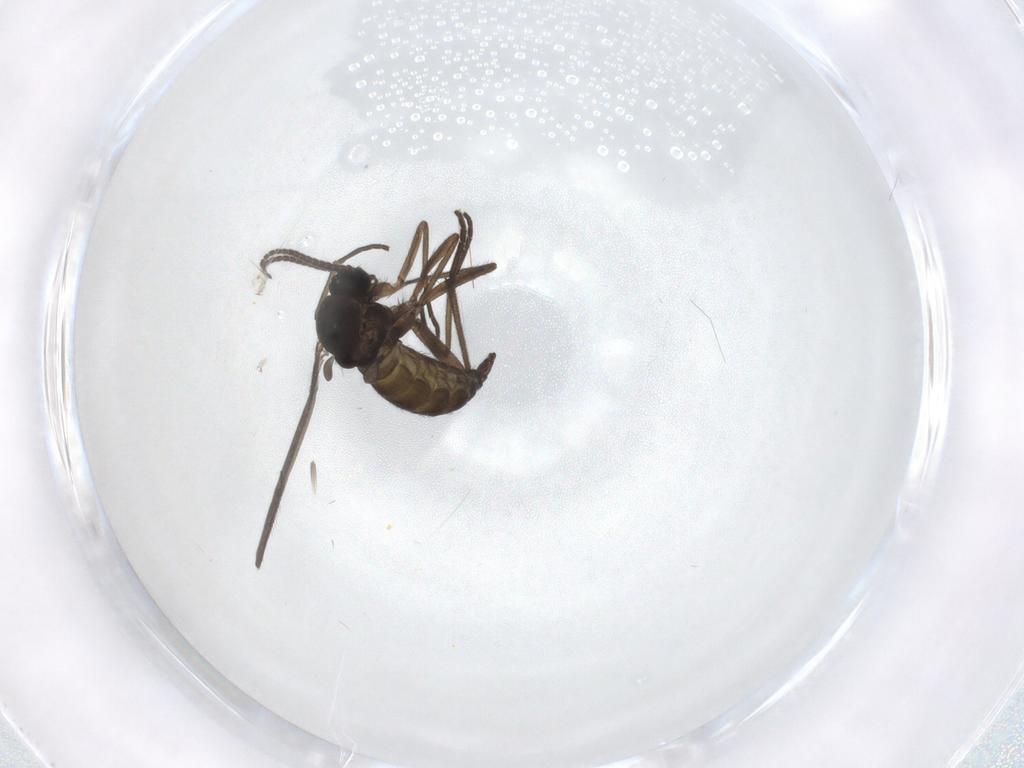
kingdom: Animalia
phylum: Arthropoda
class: Insecta
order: Diptera
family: Dolichopodidae
